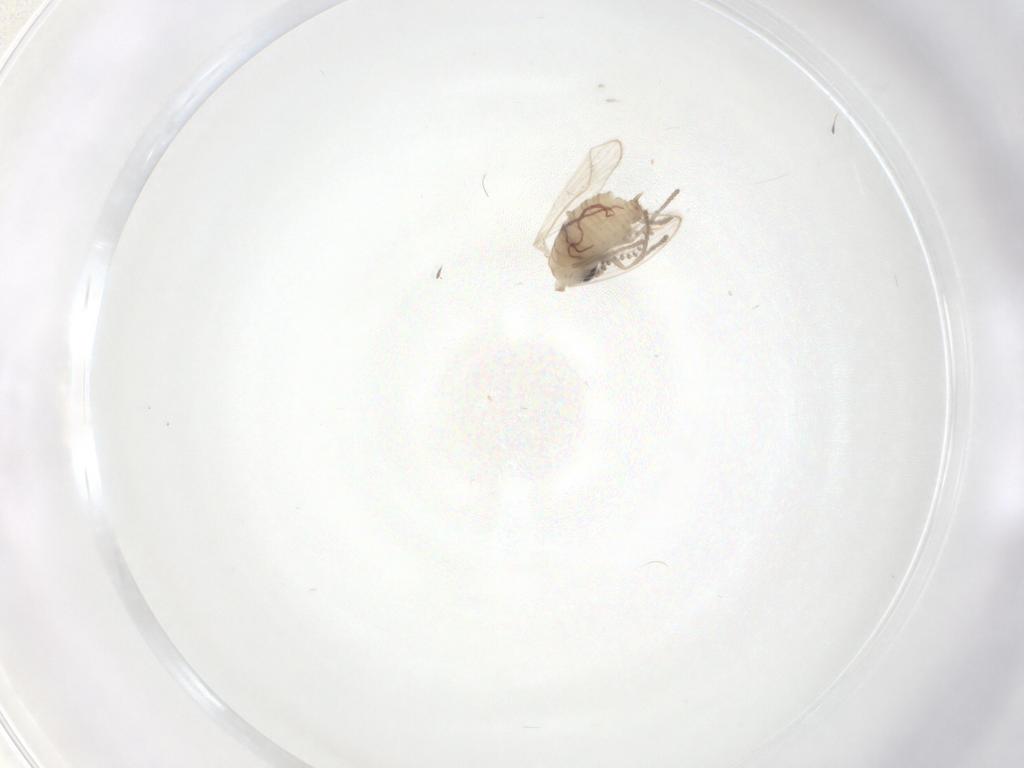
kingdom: Animalia
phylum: Arthropoda
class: Insecta
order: Diptera
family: Psychodidae
